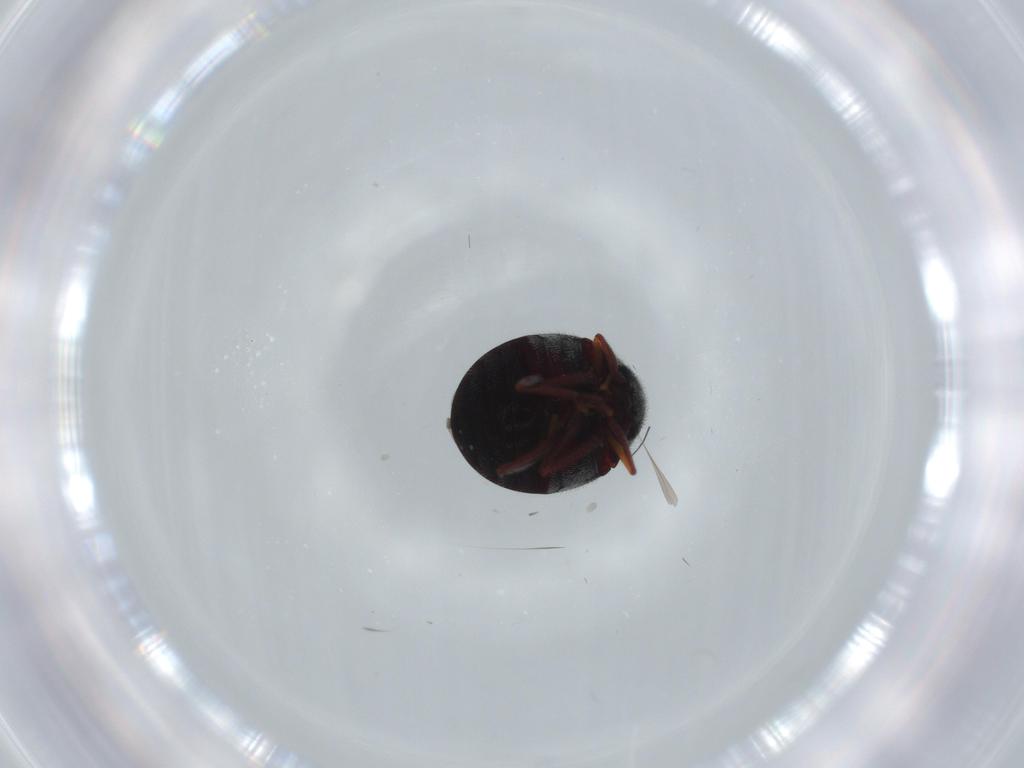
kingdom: Animalia
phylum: Arthropoda
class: Insecta
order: Coleoptera
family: Ptinidae
